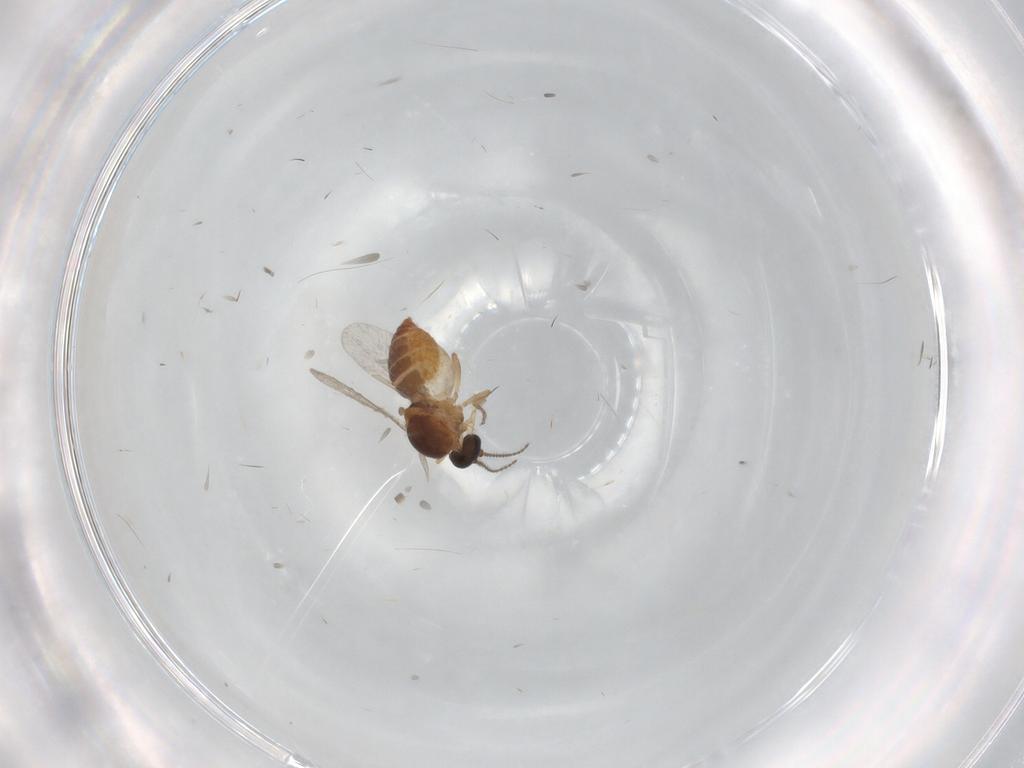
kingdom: Animalia
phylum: Arthropoda
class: Insecta
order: Diptera
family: Ceratopogonidae
